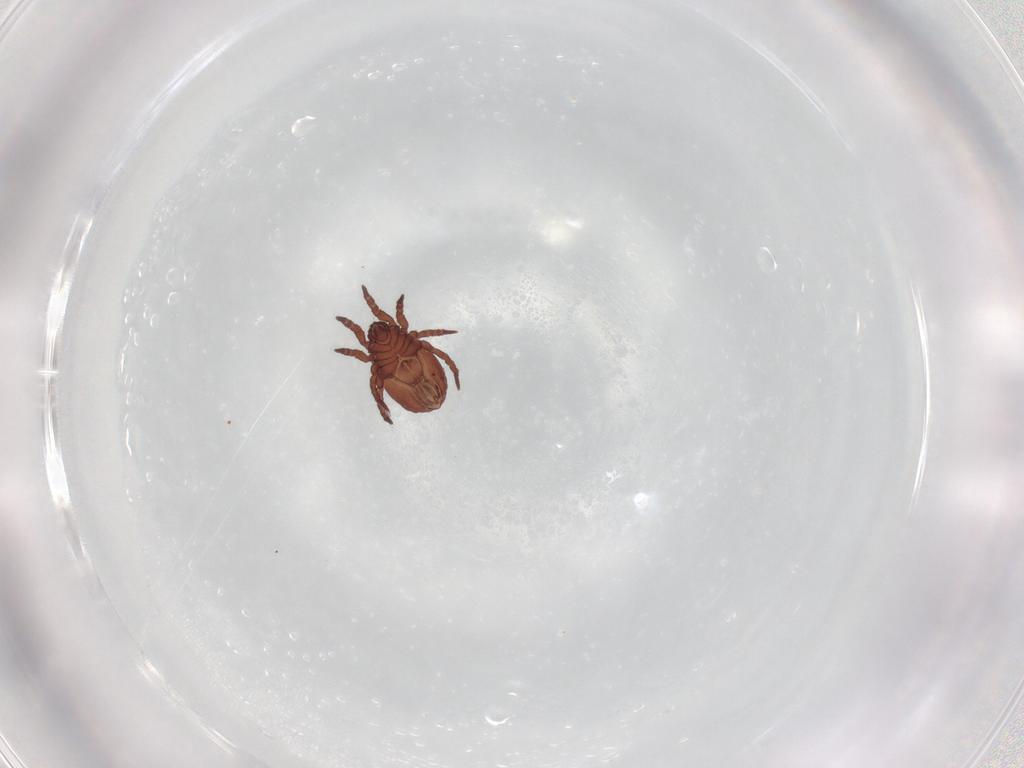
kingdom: Animalia
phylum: Arthropoda
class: Arachnida
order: Sarcoptiformes
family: Nothridae
